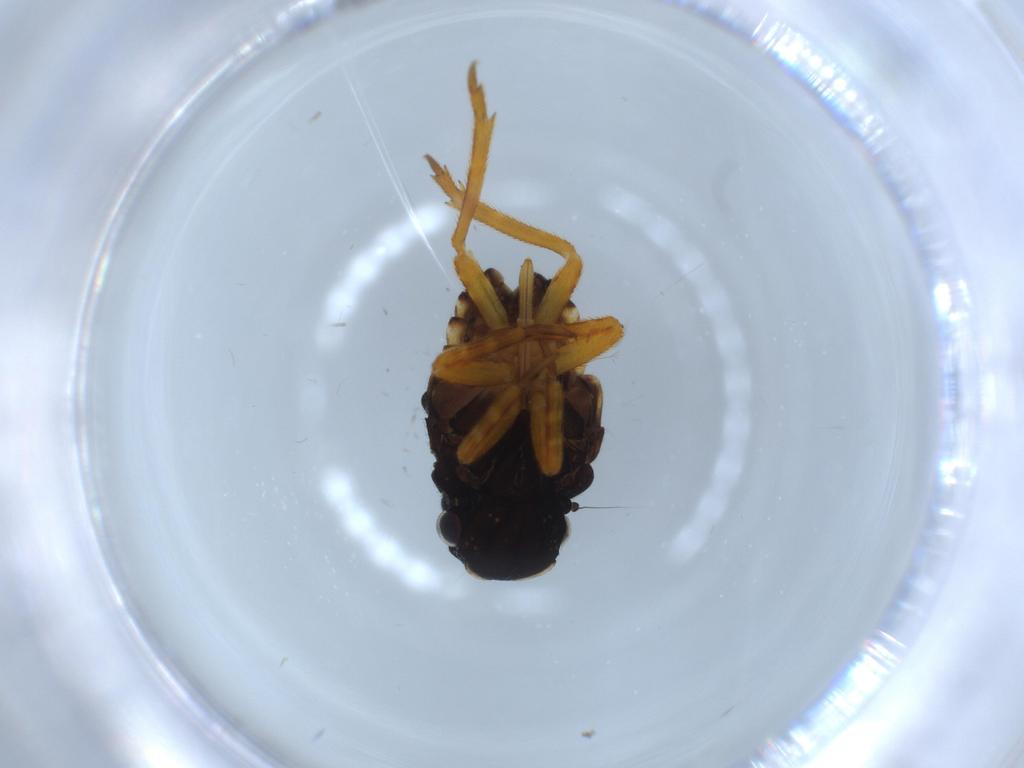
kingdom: Animalia
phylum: Arthropoda
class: Insecta
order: Hemiptera
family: Fulgoridae
